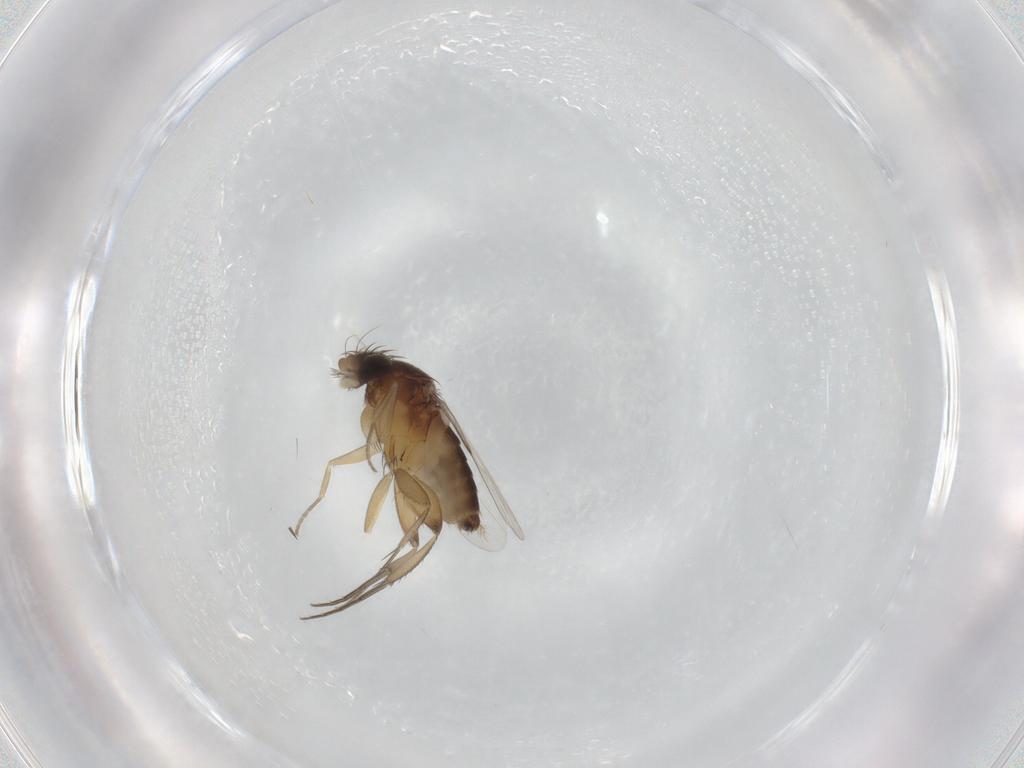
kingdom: Animalia
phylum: Arthropoda
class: Insecta
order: Diptera
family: Phoridae
